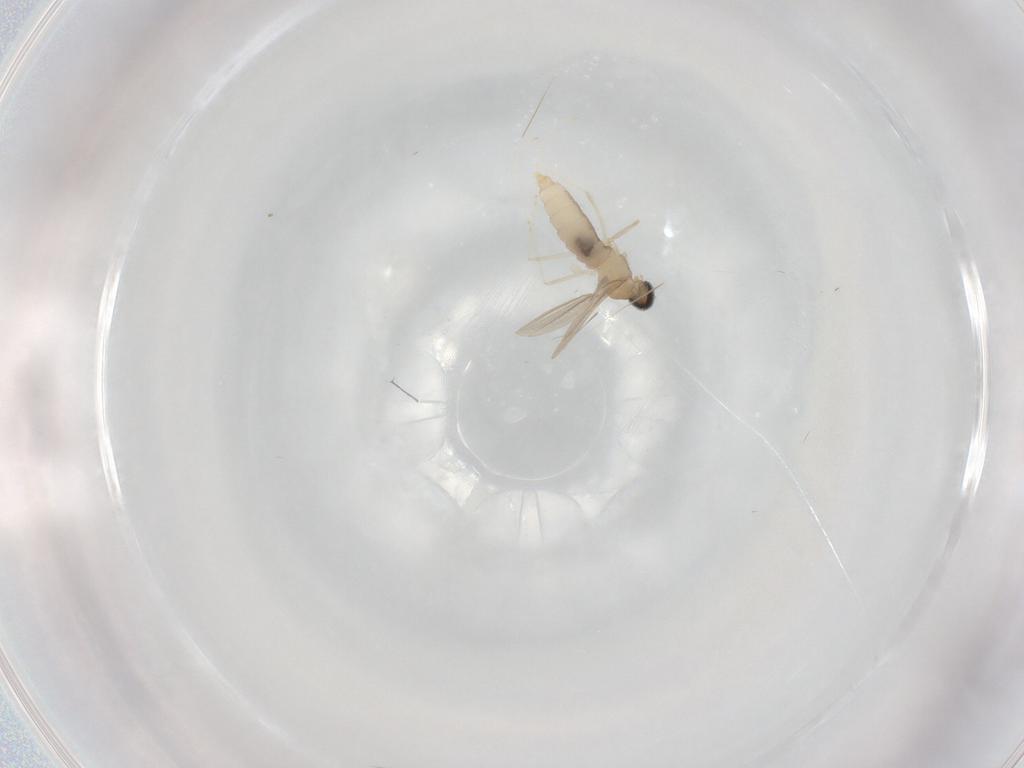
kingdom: Animalia
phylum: Arthropoda
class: Insecta
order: Diptera
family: Cecidomyiidae
